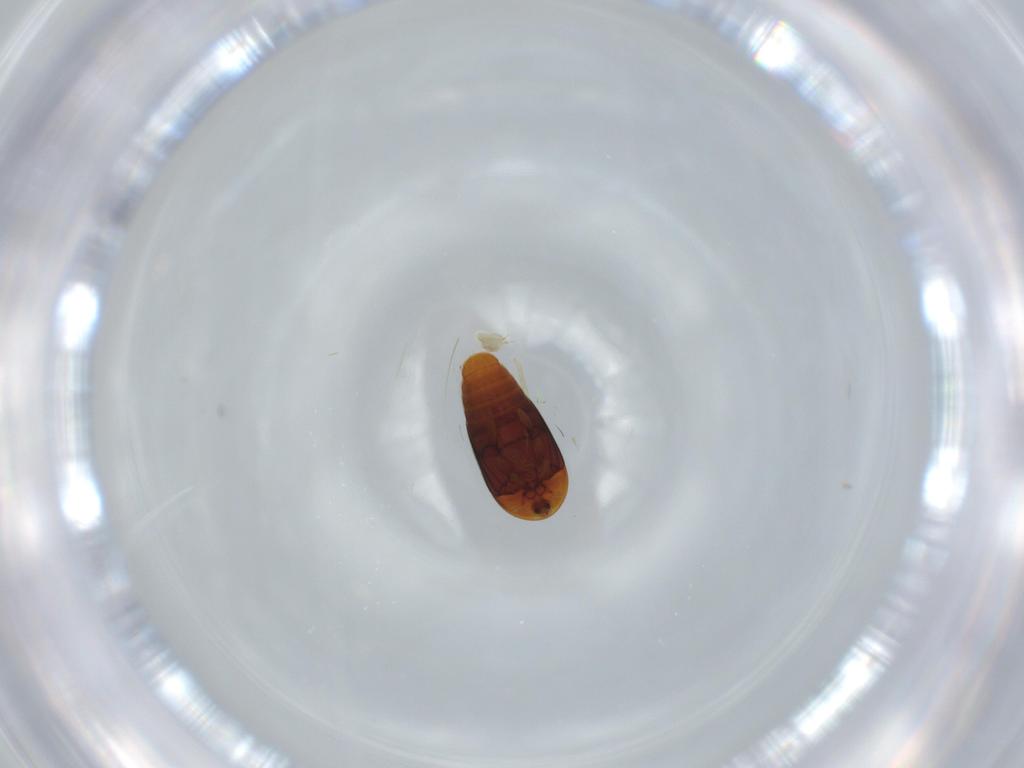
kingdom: Animalia
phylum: Arthropoda
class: Insecta
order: Coleoptera
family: Corylophidae
